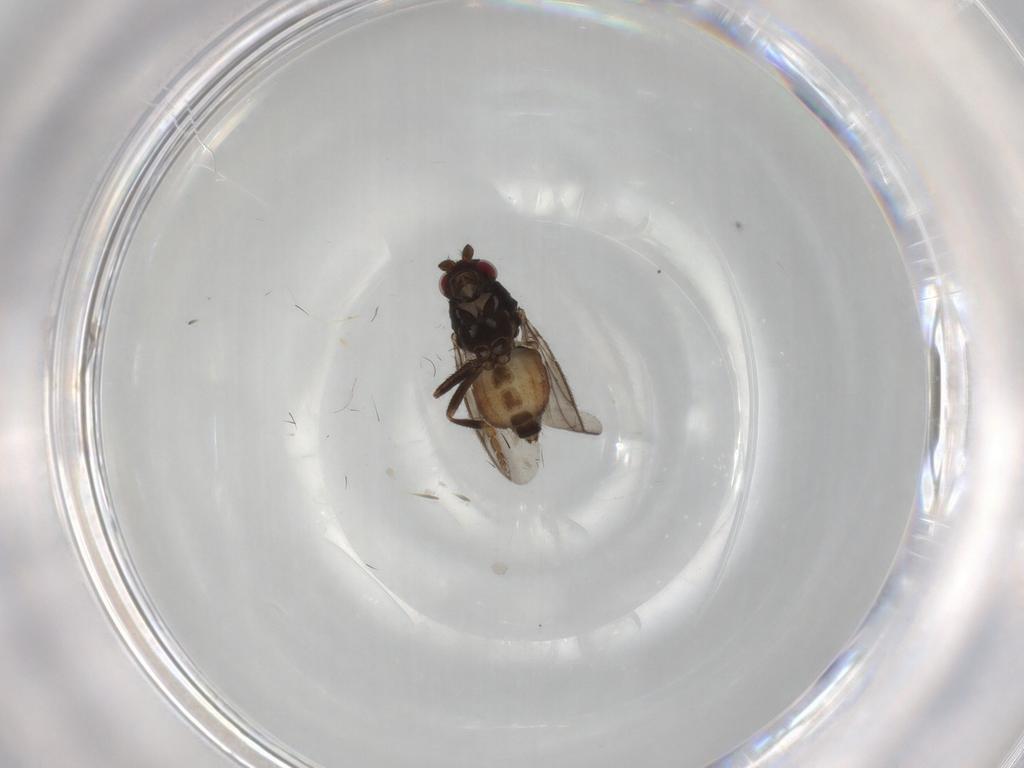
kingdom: Animalia
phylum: Arthropoda
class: Insecta
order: Diptera
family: Sphaeroceridae
